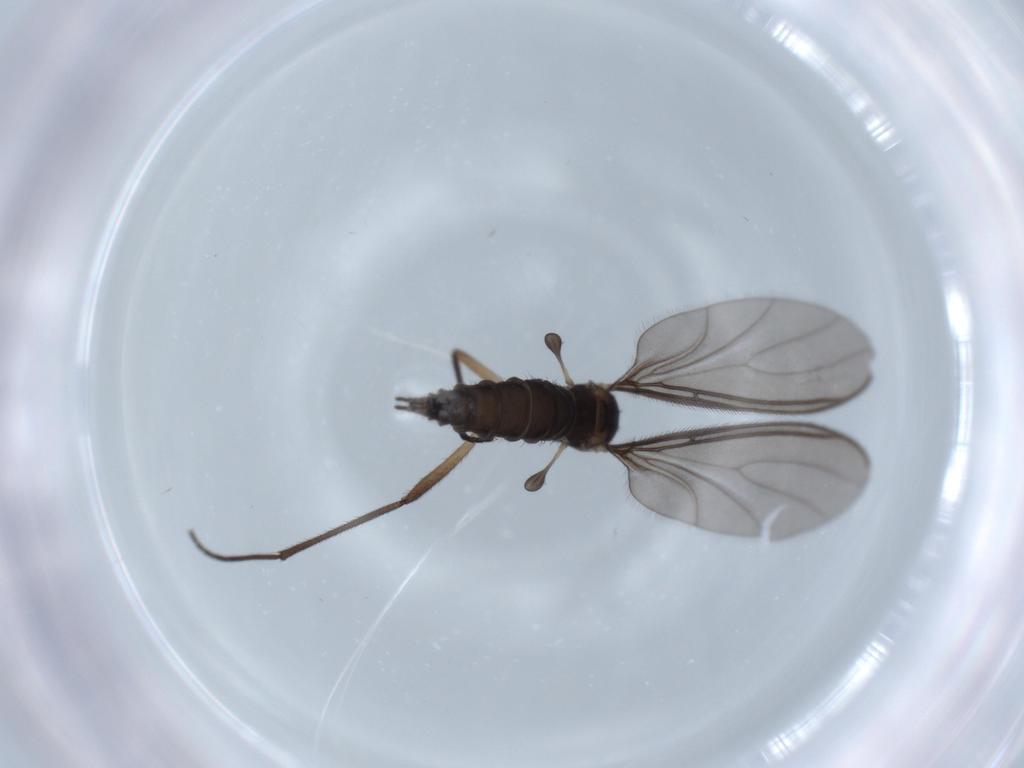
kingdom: Animalia
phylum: Arthropoda
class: Insecta
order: Diptera
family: Sciaridae
